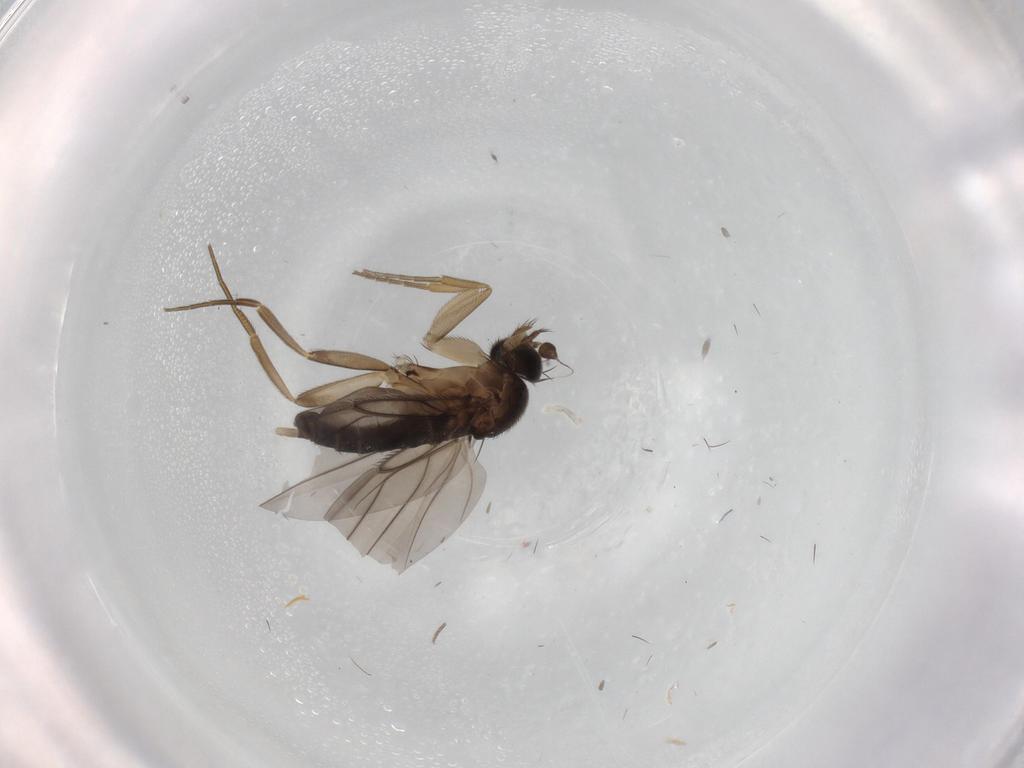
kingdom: Animalia
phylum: Arthropoda
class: Insecta
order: Diptera
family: Phoridae
